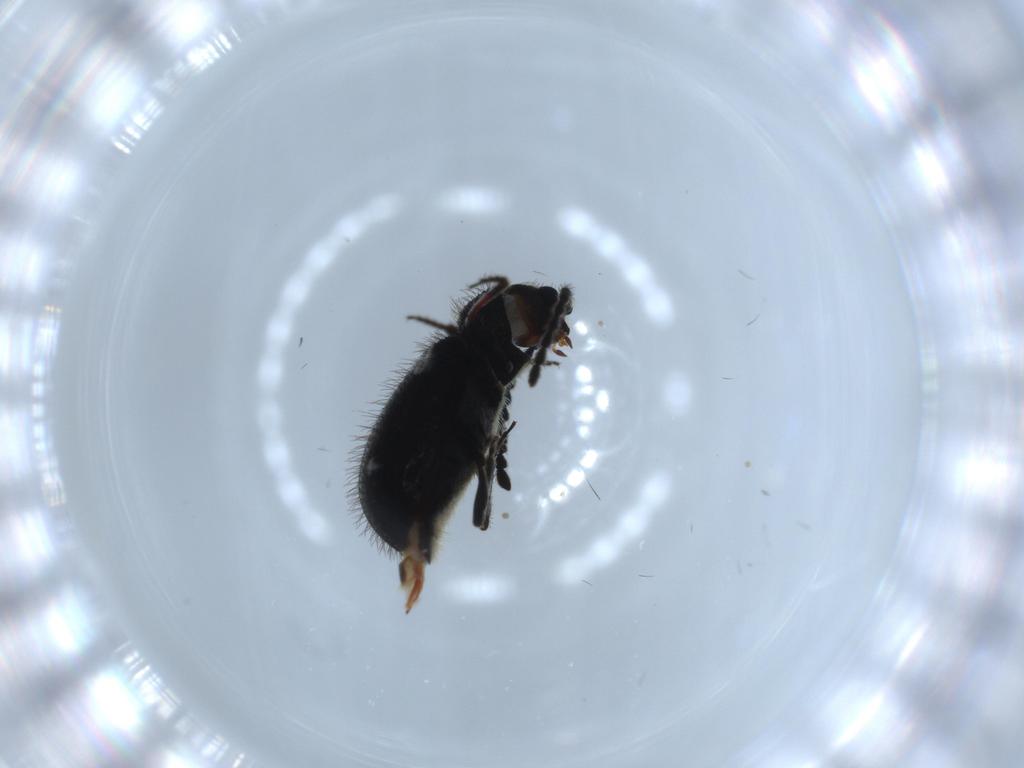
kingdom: Animalia
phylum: Arthropoda
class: Insecta
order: Coleoptera
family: Ptinidae
